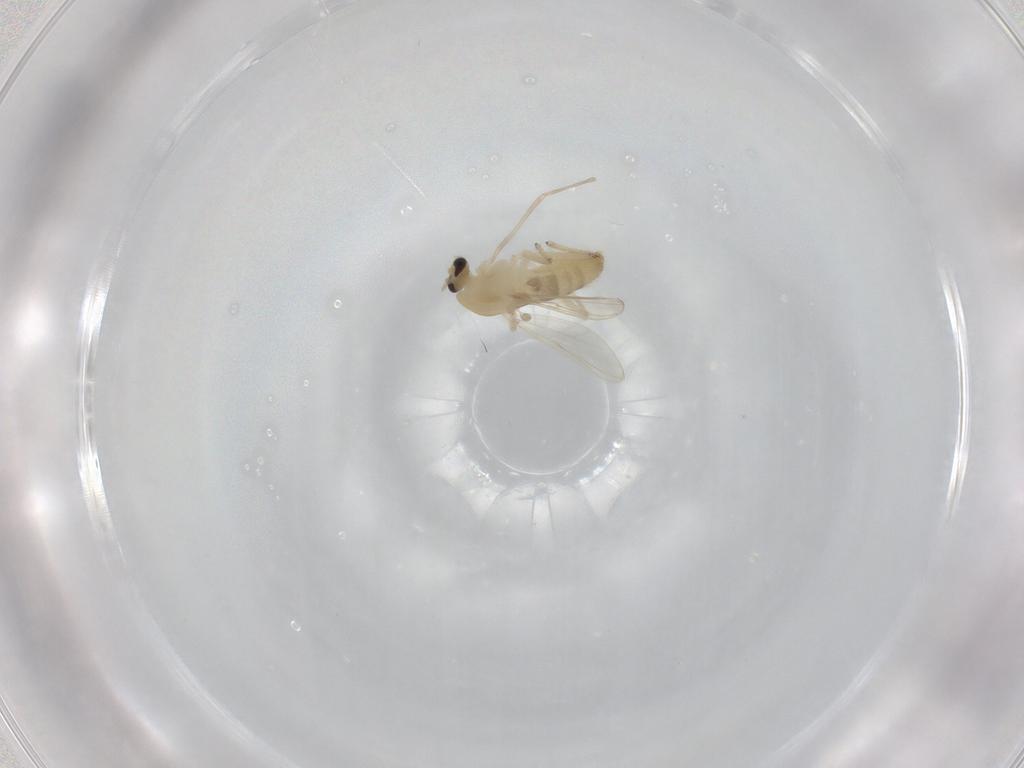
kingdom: Animalia
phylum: Arthropoda
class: Insecta
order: Diptera
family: Chironomidae
